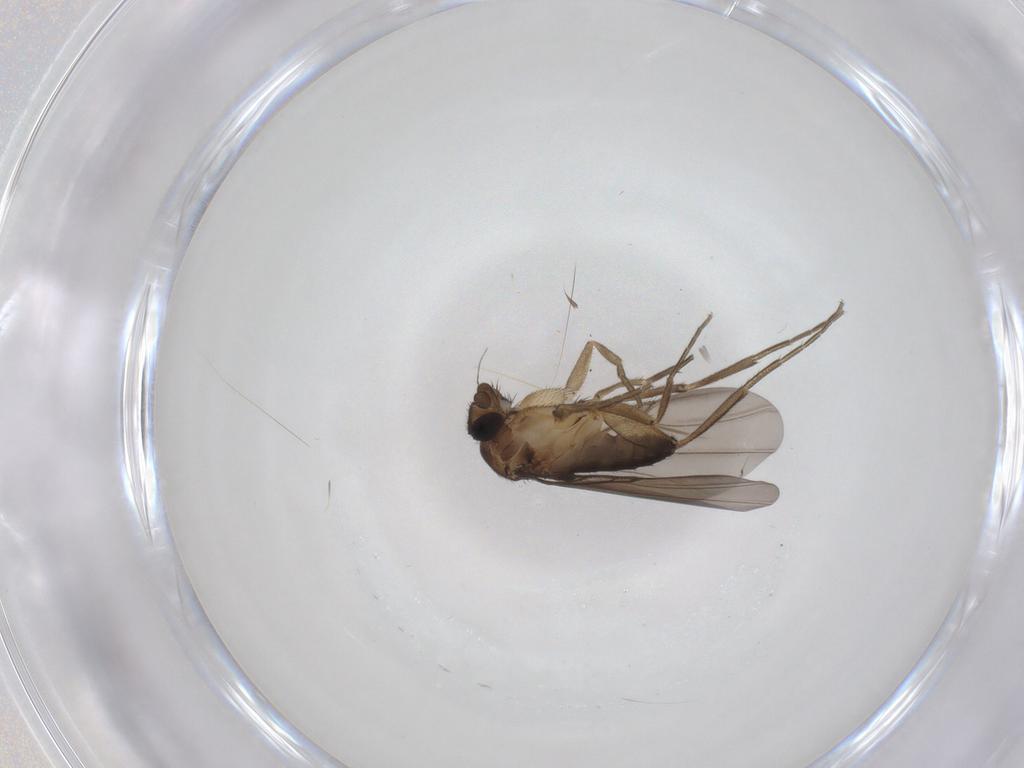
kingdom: Animalia
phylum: Arthropoda
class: Insecta
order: Diptera
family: Phoridae
